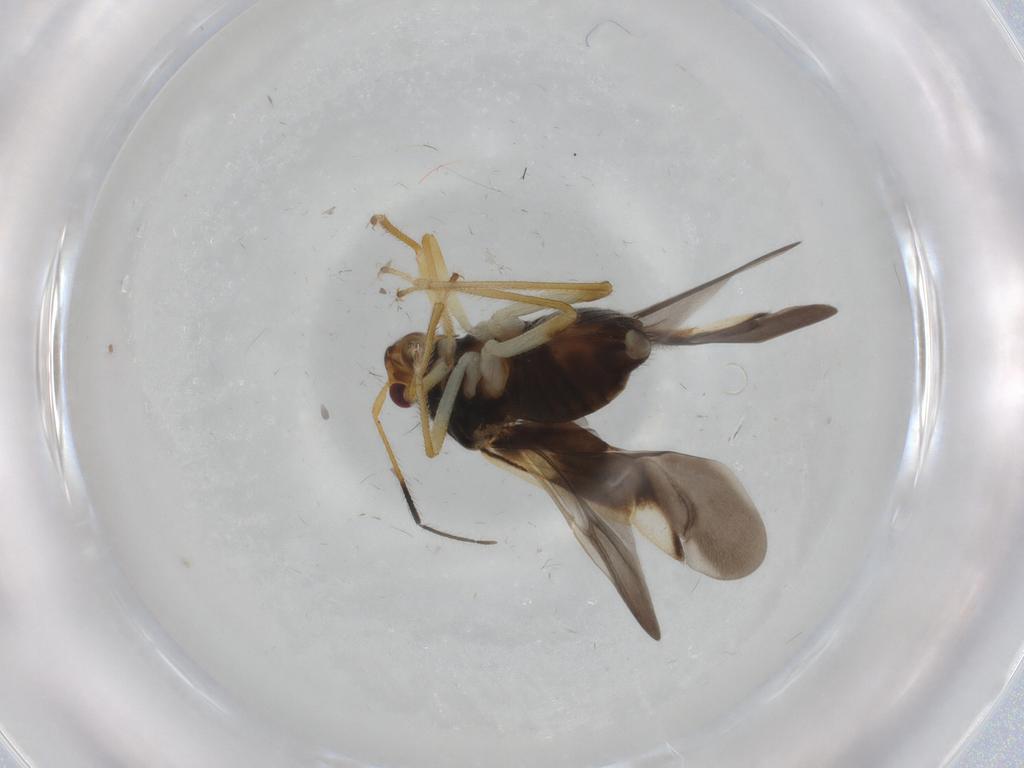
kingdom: Animalia
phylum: Arthropoda
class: Insecta
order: Hemiptera
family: Miridae
